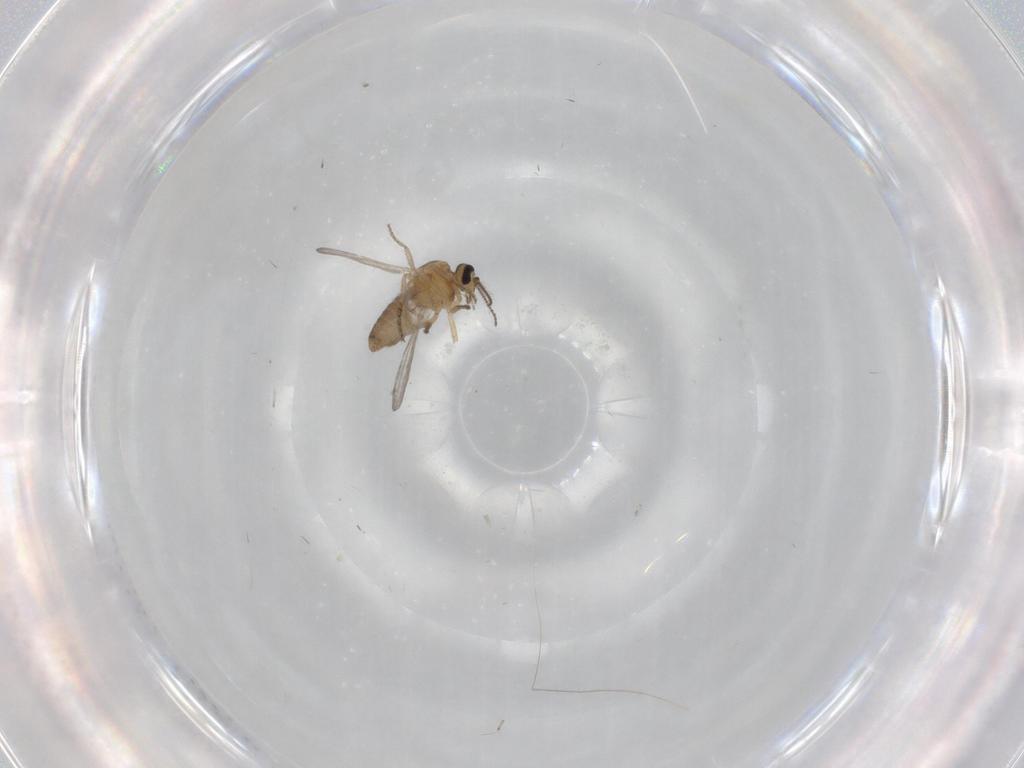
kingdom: Animalia
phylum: Arthropoda
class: Insecta
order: Diptera
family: Ceratopogonidae
